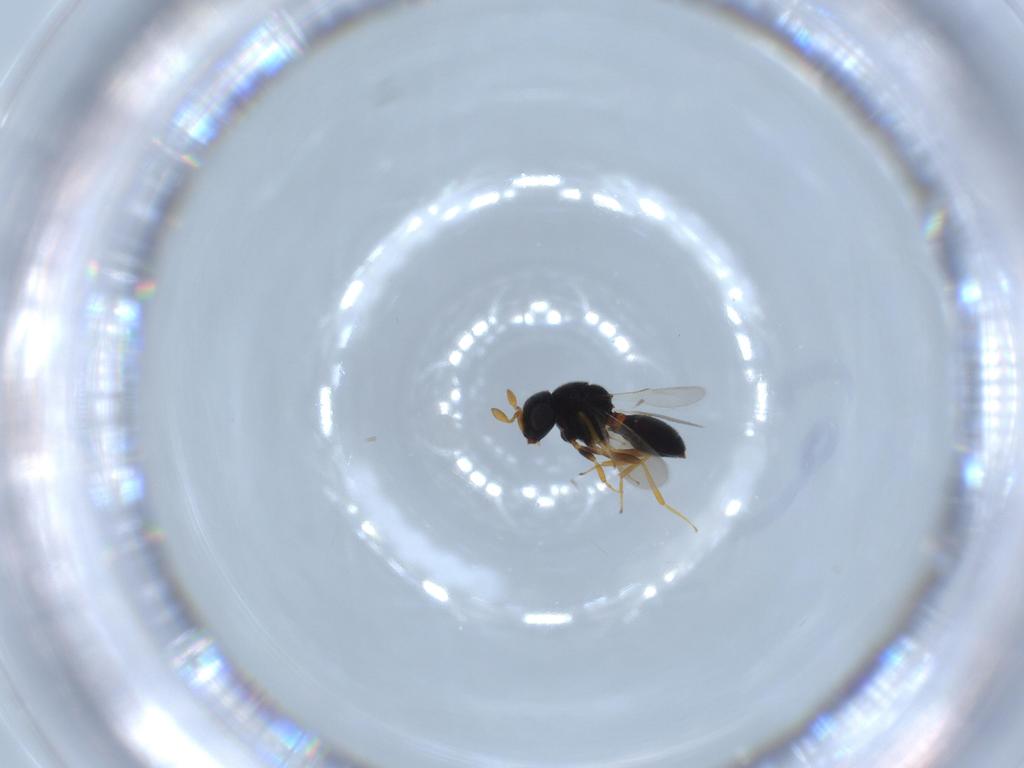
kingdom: Animalia
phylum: Arthropoda
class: Insecta
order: Hymenoptera
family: Scelionidae
